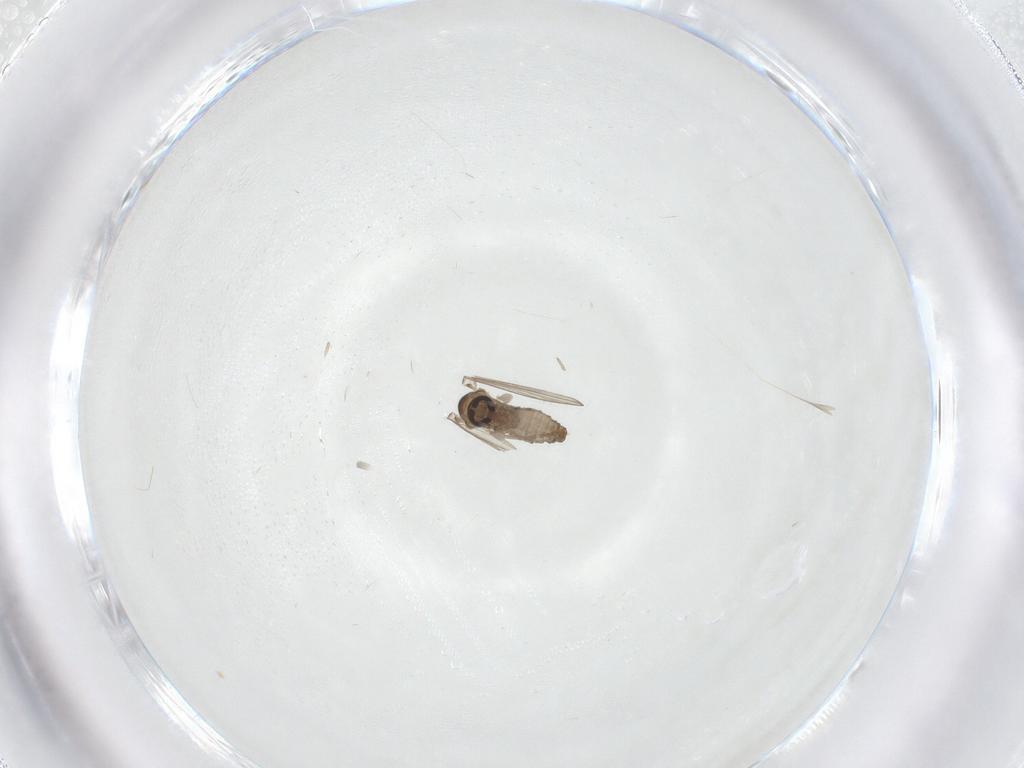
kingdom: Animalia
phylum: Arthropoda
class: Insecta
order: Diptera
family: Psychodidae
